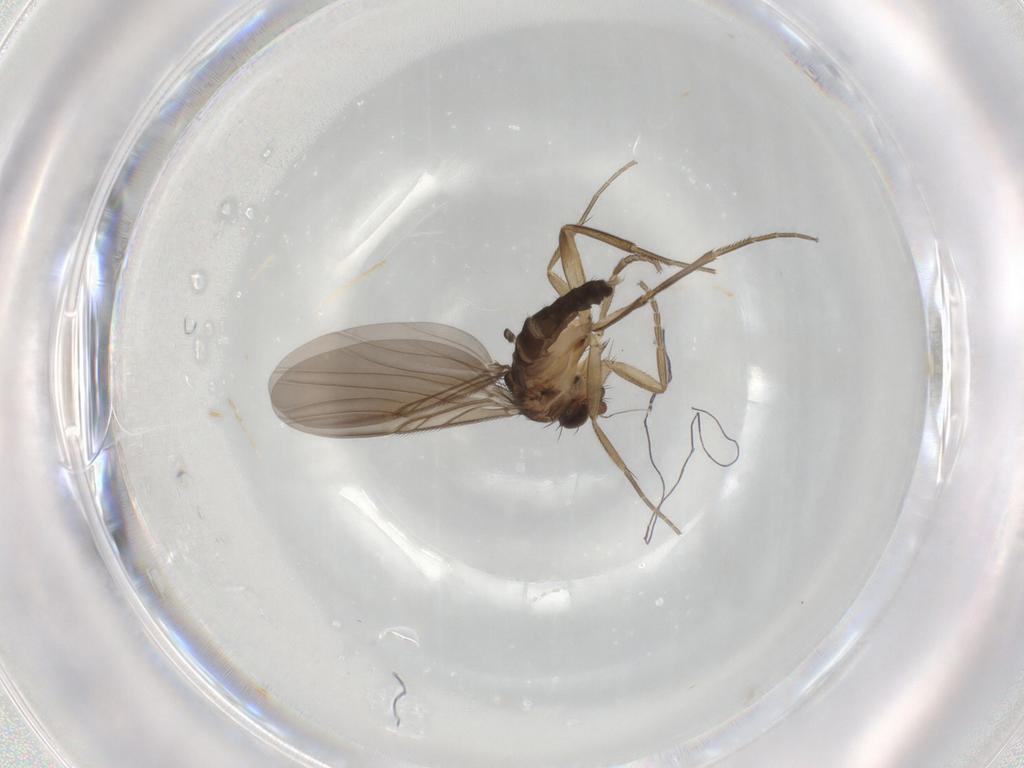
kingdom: Animalia
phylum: Arthropoda
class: Insecta
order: Diptera
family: Phoridae
